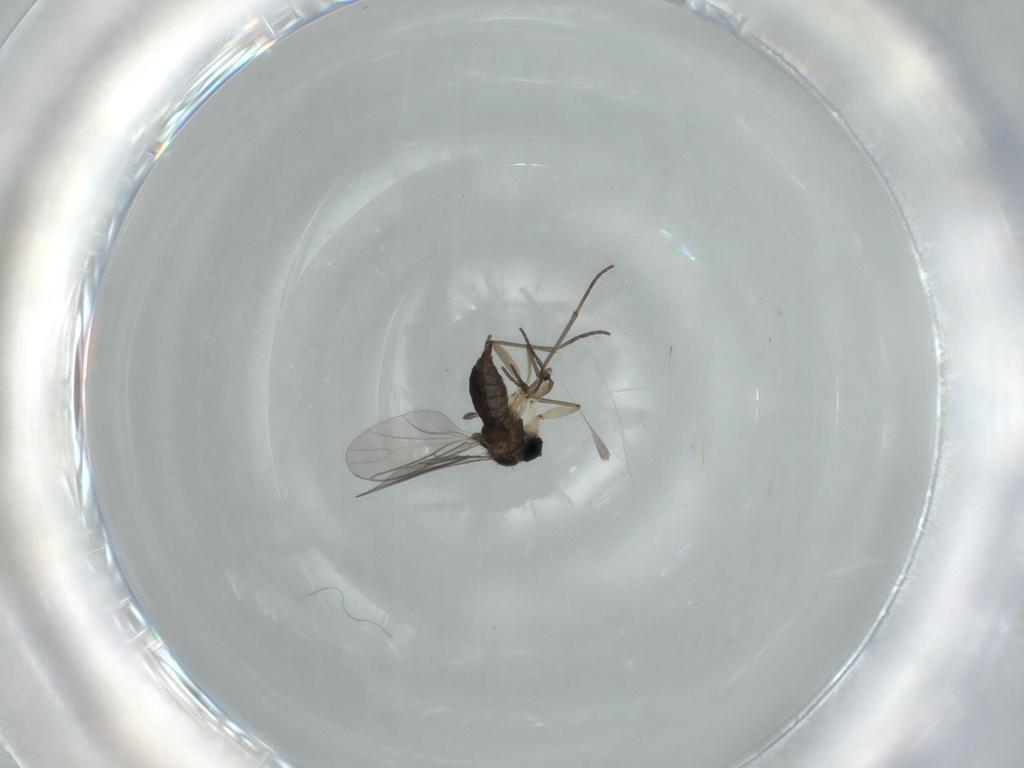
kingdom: Animalia
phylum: Arthropoda
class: Insecta
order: Diptera
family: Sciaridae
